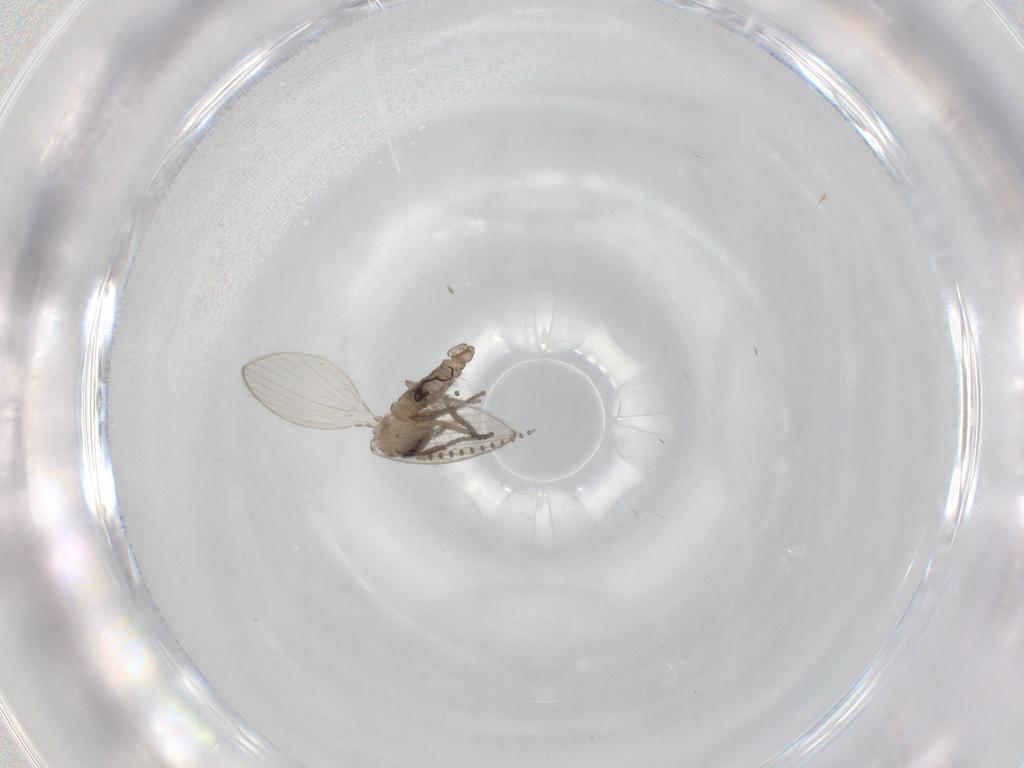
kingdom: Animalia
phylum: Arthropoda
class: Insecta
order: Diptera
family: Psychodidae
